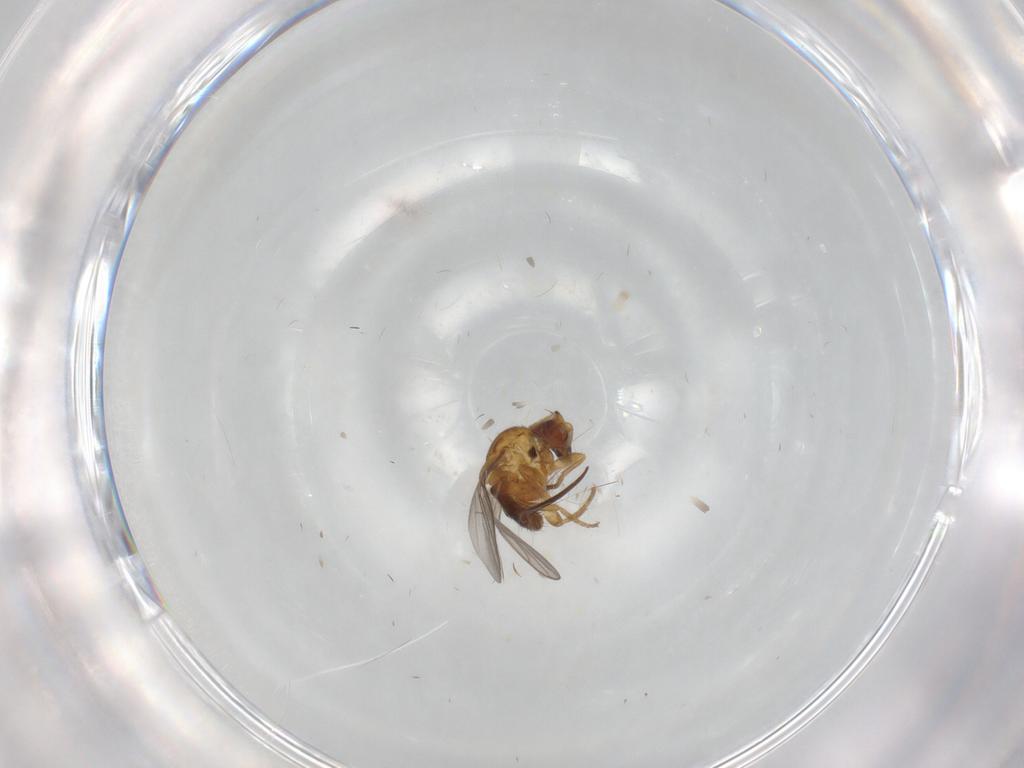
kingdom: Animalia
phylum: Arthropoda
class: Insecta
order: Diptera
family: Chloropidae
